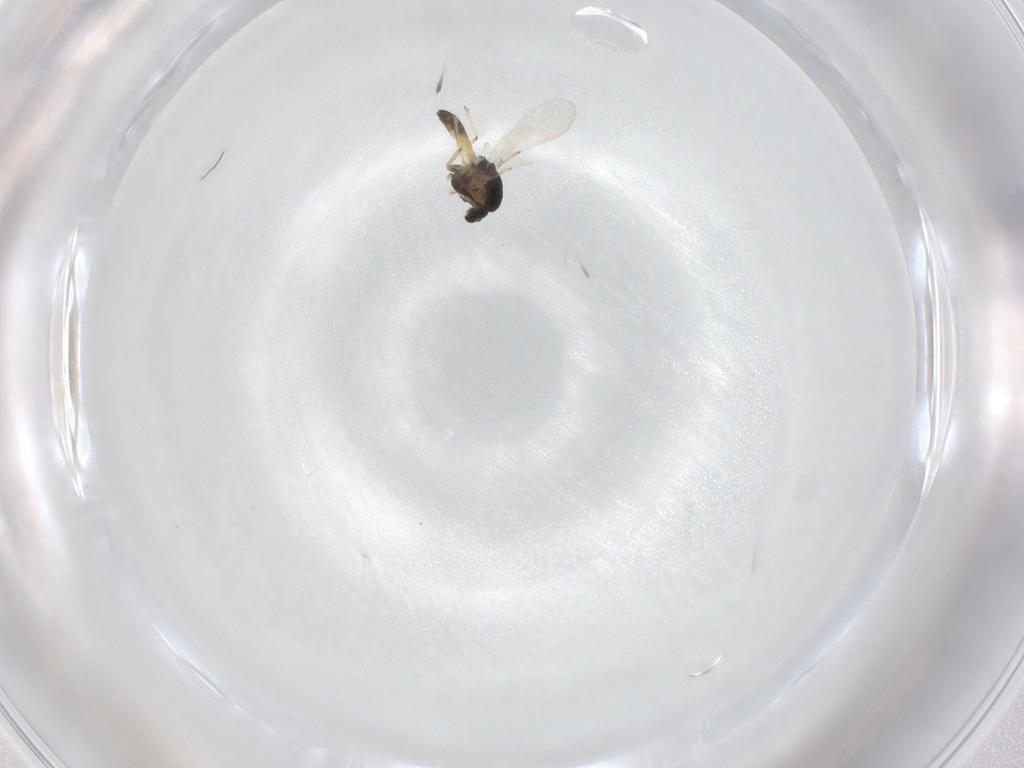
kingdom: Animalia
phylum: Arthropoda
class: Insecta
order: Diptera
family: Chironomidae
